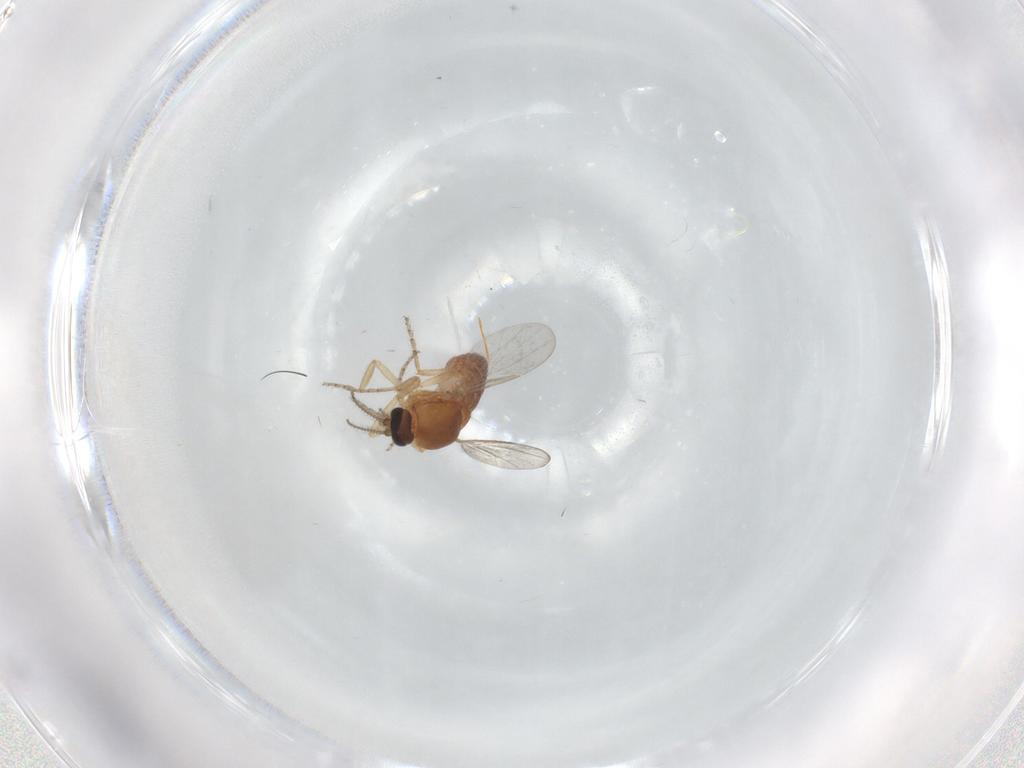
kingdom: Animalia
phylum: Arthropoda
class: Insecta
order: Diptera
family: Ceratopogonidae
